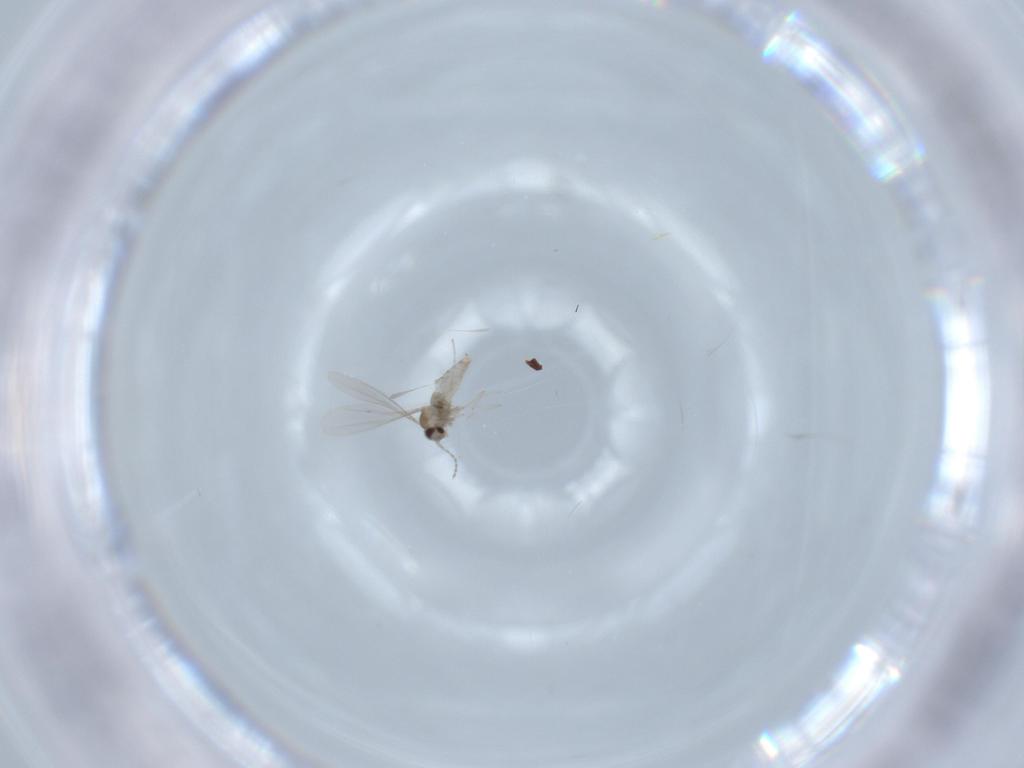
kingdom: Animalia
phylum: Arthropoda
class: Insecta
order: Diptera
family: Cecidomyiidae
